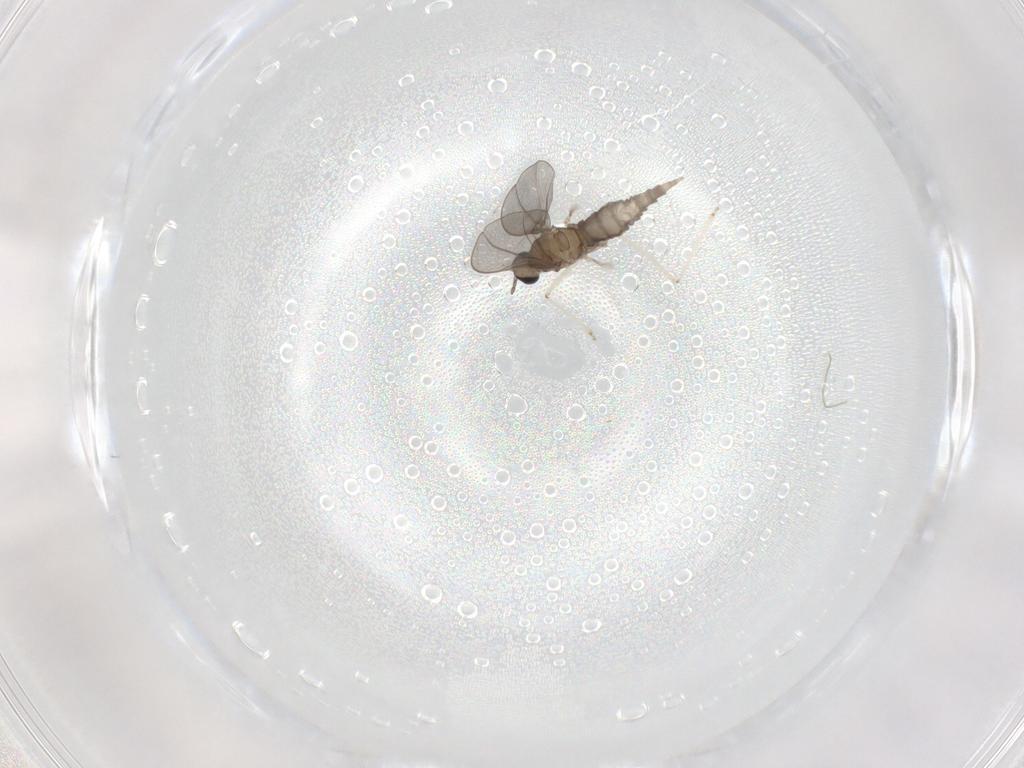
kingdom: Animalia
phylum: Arthropoda
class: Insecta
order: Diptera
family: Cecidomyiidae
